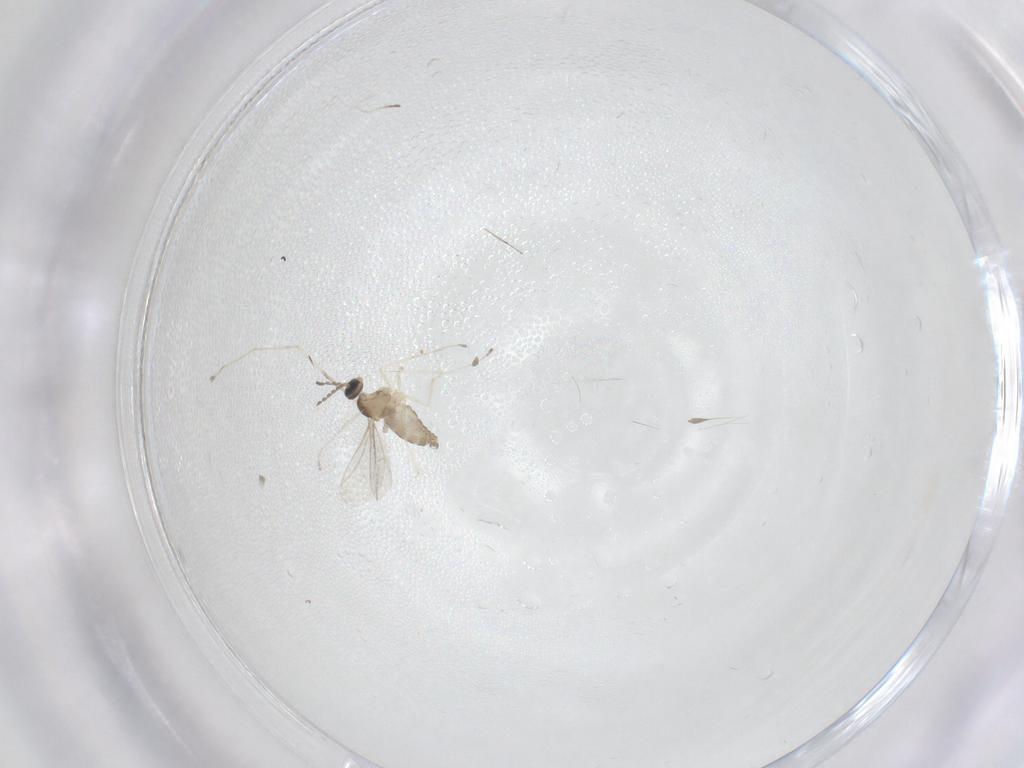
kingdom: Animalia
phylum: Arthropoda
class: Insecta
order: Diptera
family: Cecidomyiidae
